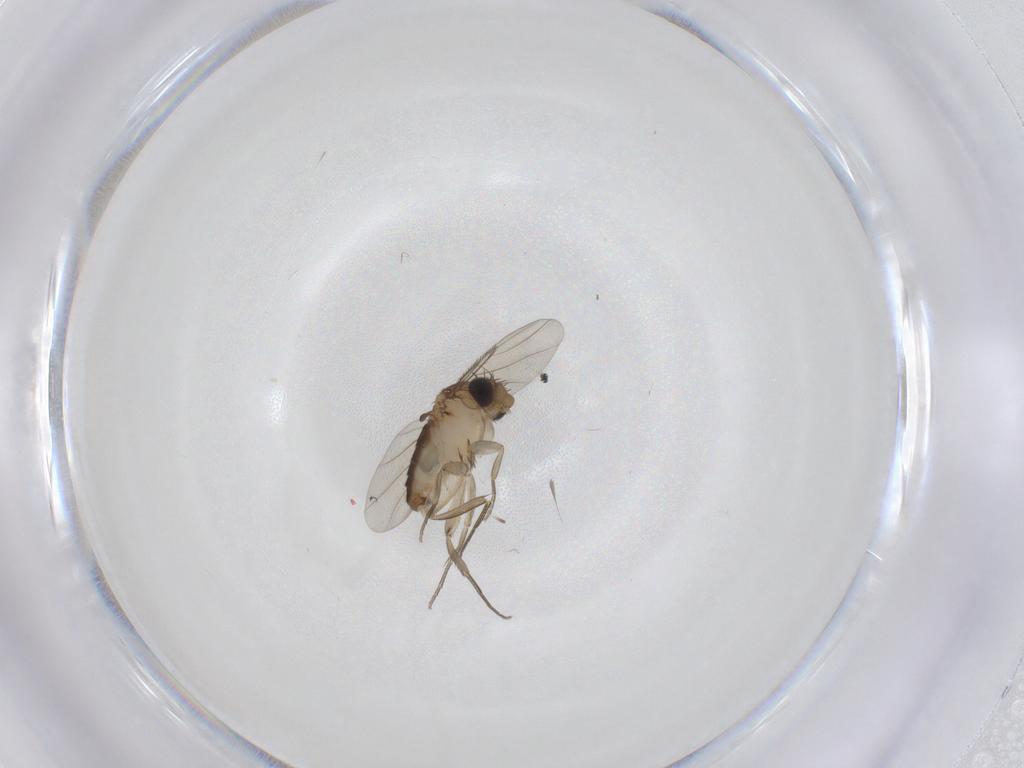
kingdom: Animalia
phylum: Arthropoda
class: Insecta
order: Diptera
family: Phoridae
